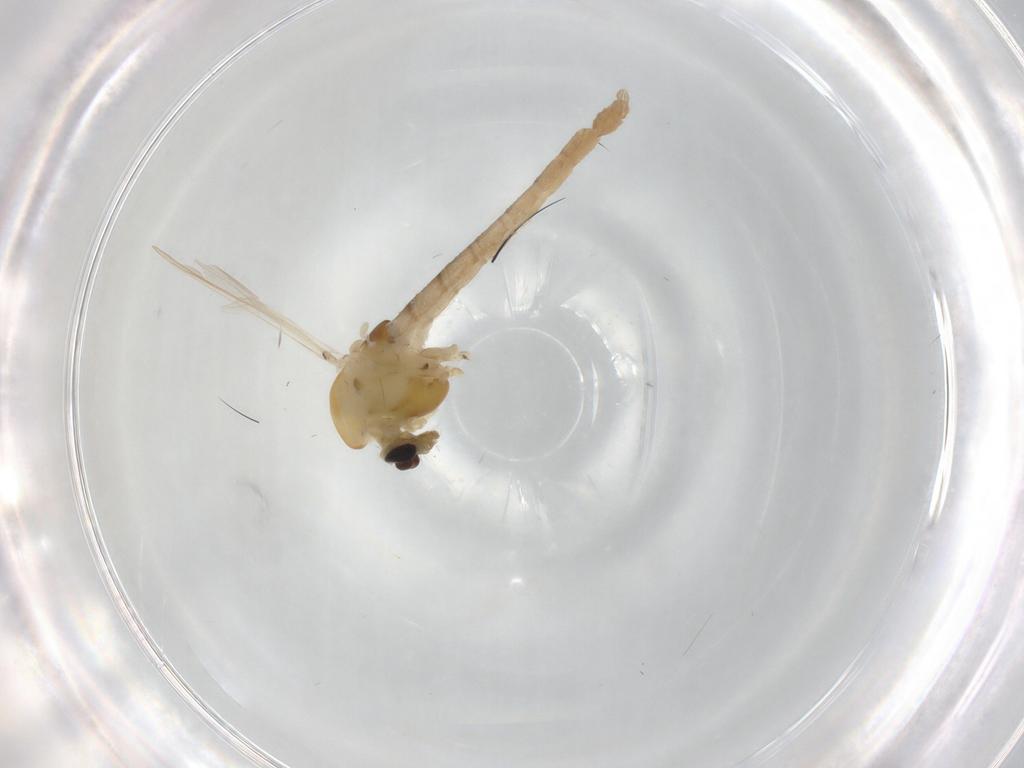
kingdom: Animalia
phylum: Arthropoda
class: Insecta
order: Diptera
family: Chironomidae
